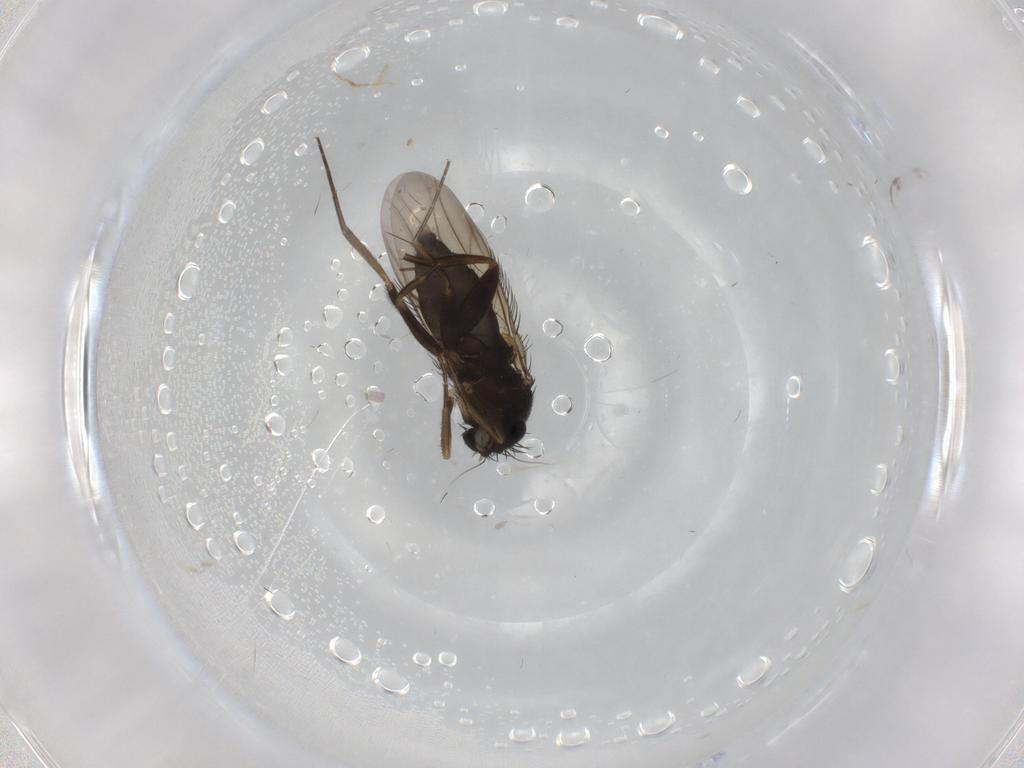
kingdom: Animalia
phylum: Arthropoda
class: Insecta
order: Diptera
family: Phoridae
